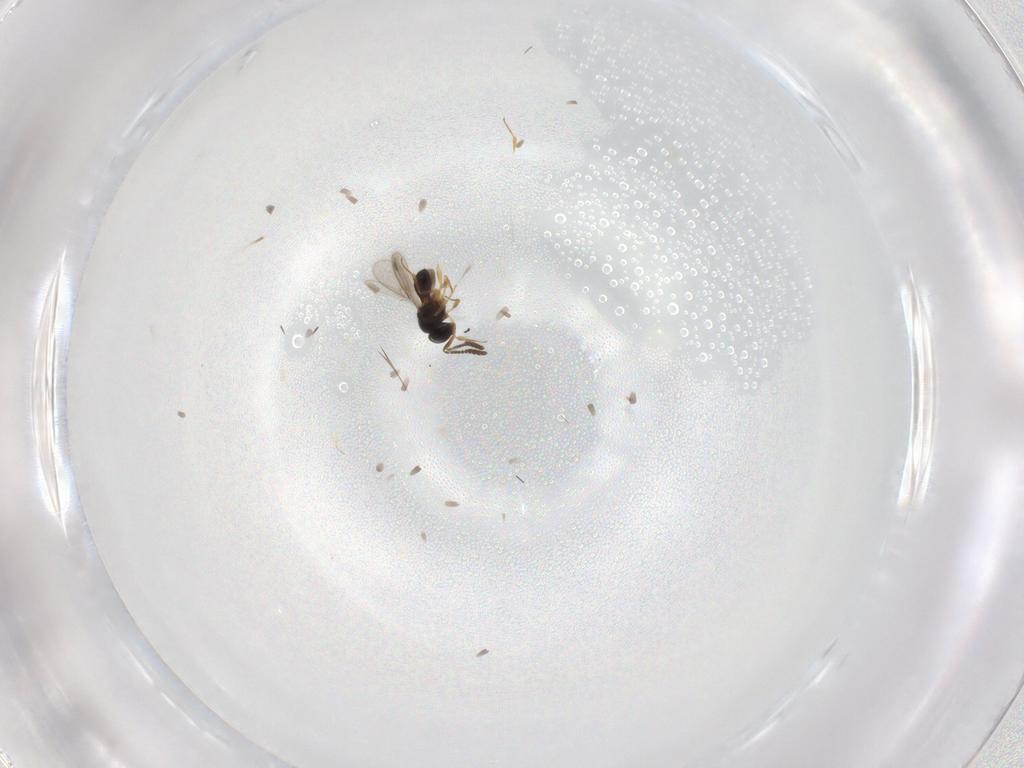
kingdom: Animalia
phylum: Arthropoda
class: Insecta
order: Hymenoptera
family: Scelionidae
